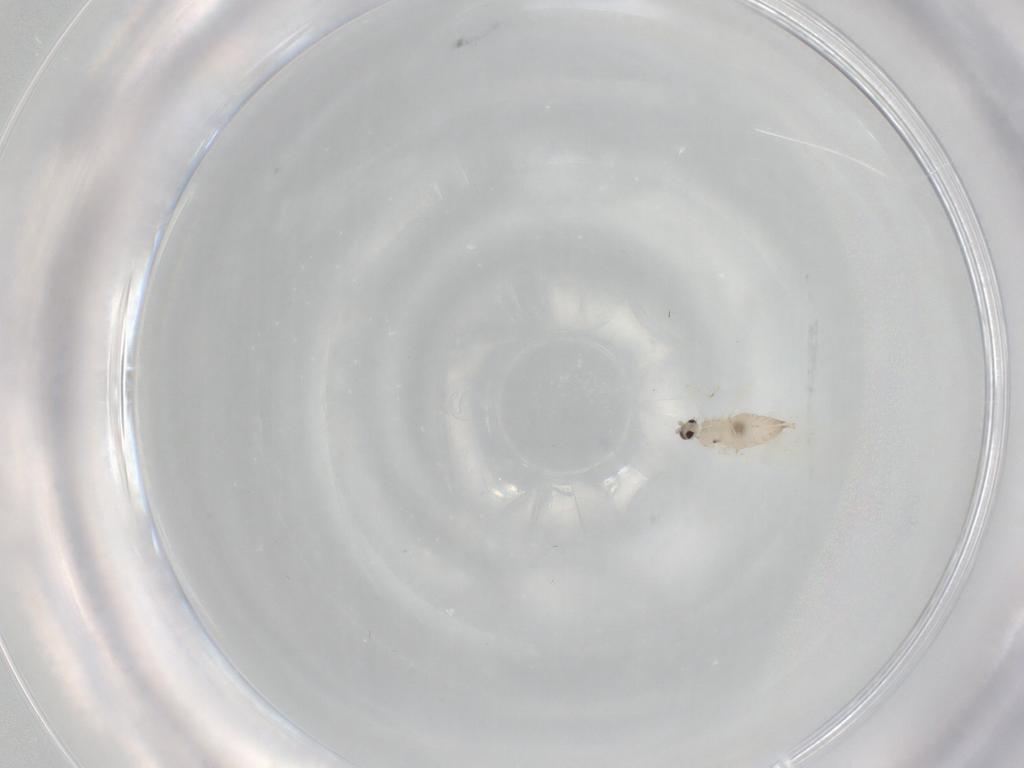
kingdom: Animalia
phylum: Arthropoda
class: Insecta
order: Diptera
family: Cecidomyiidae
